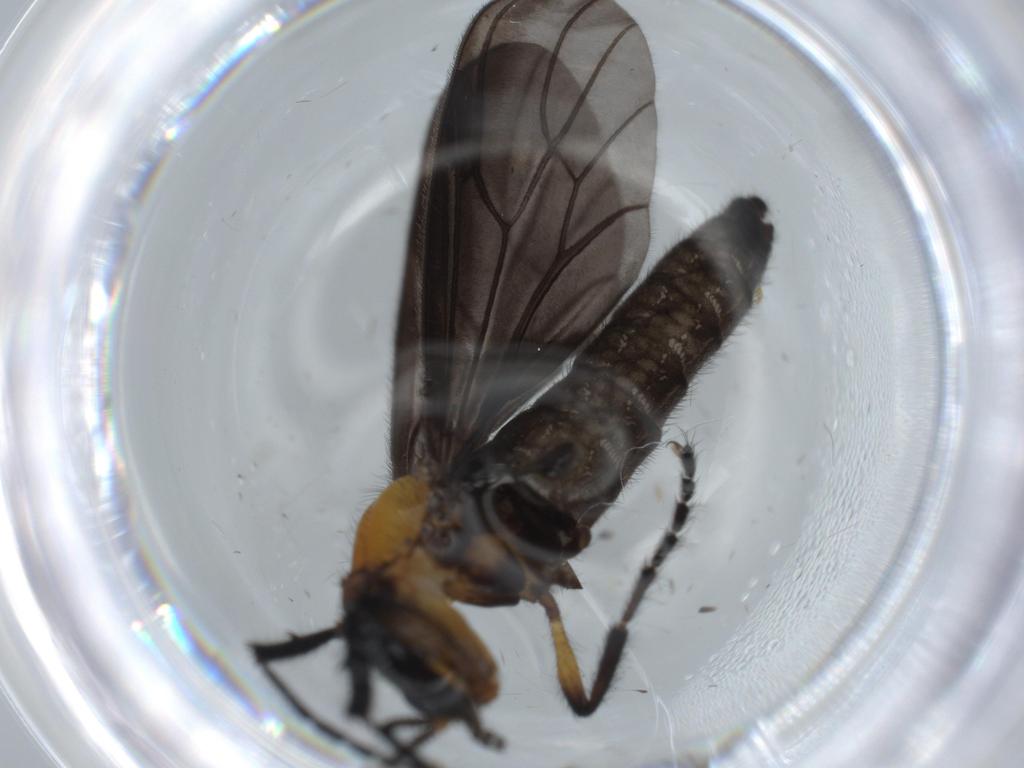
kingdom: Animalia
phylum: Arthropoda
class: Insecta
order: Diptera
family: Bibionidae
